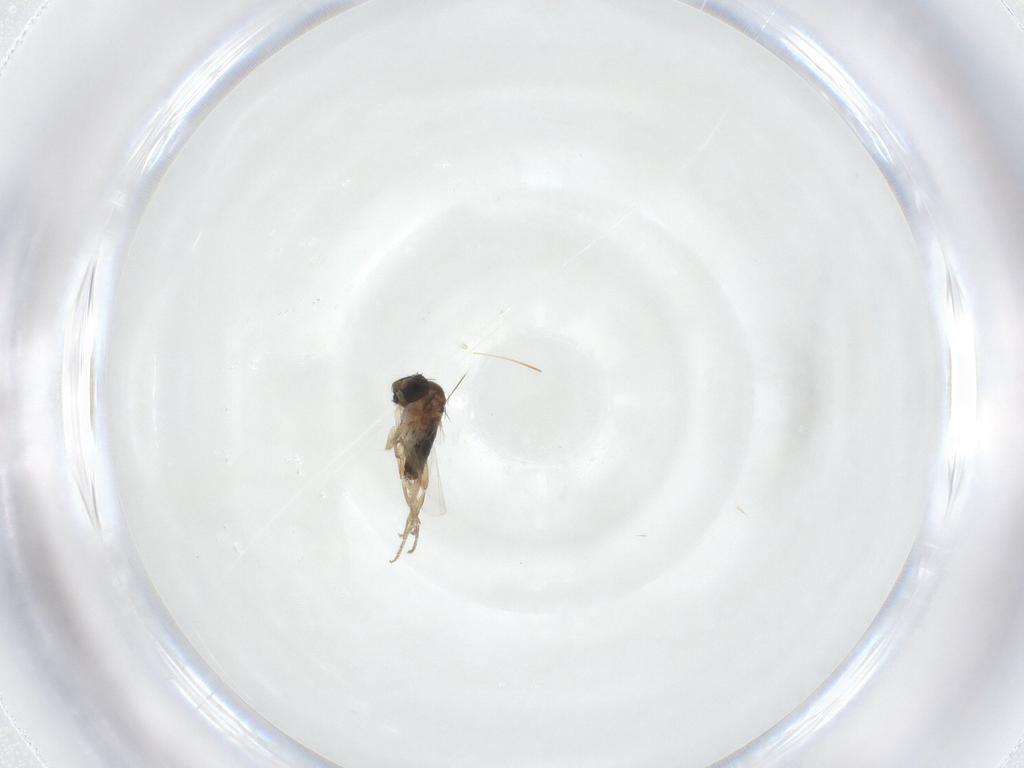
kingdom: Animalia
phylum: Arthropoda
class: Insecta
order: Diptera
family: Phoridae
